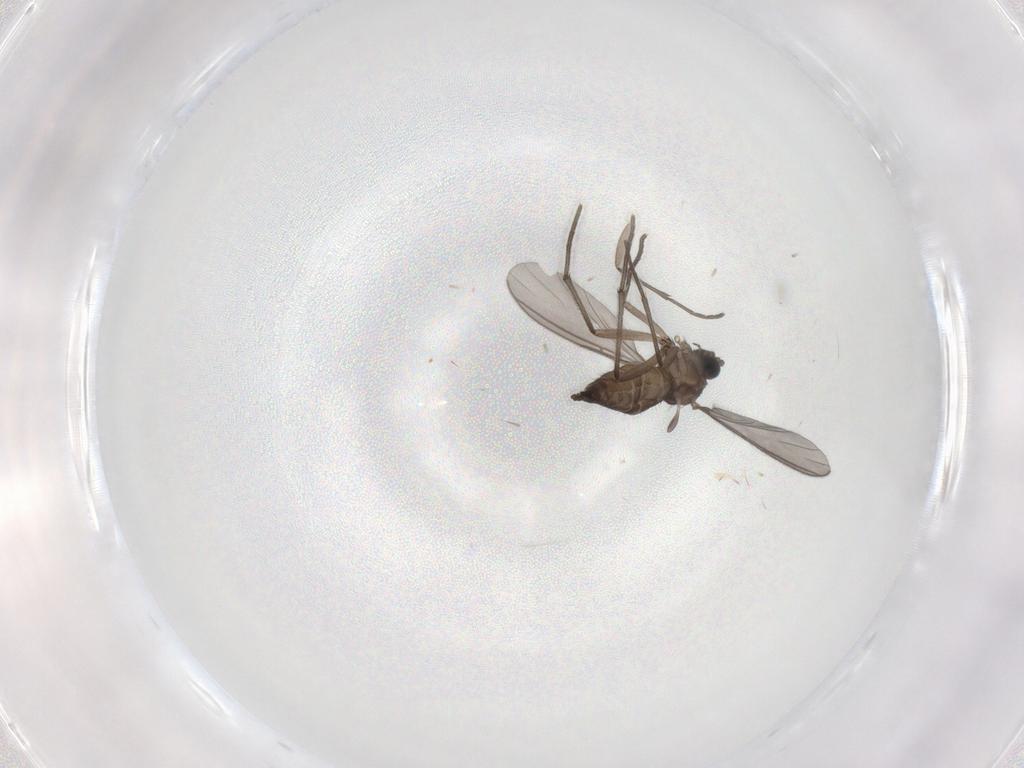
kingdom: Animalia
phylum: Arthropoda
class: Insecta
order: Diptera
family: Sciaridae
